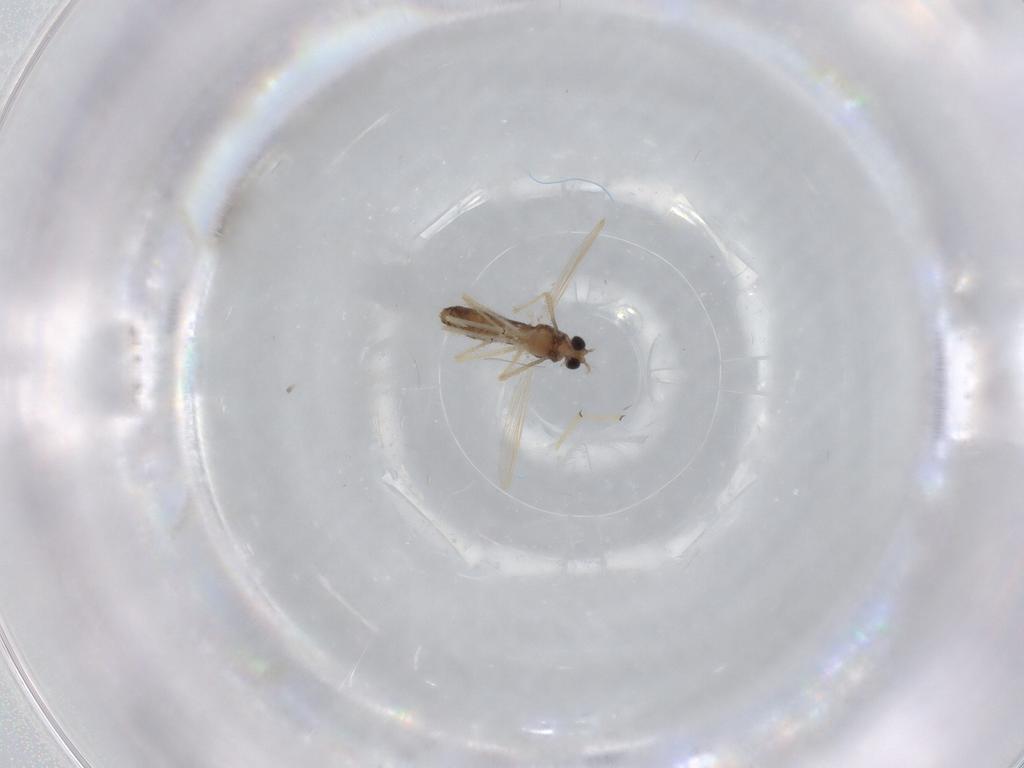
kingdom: Animalia
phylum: Arthropoda
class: Insecta
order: Diptera
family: Chironomidae
